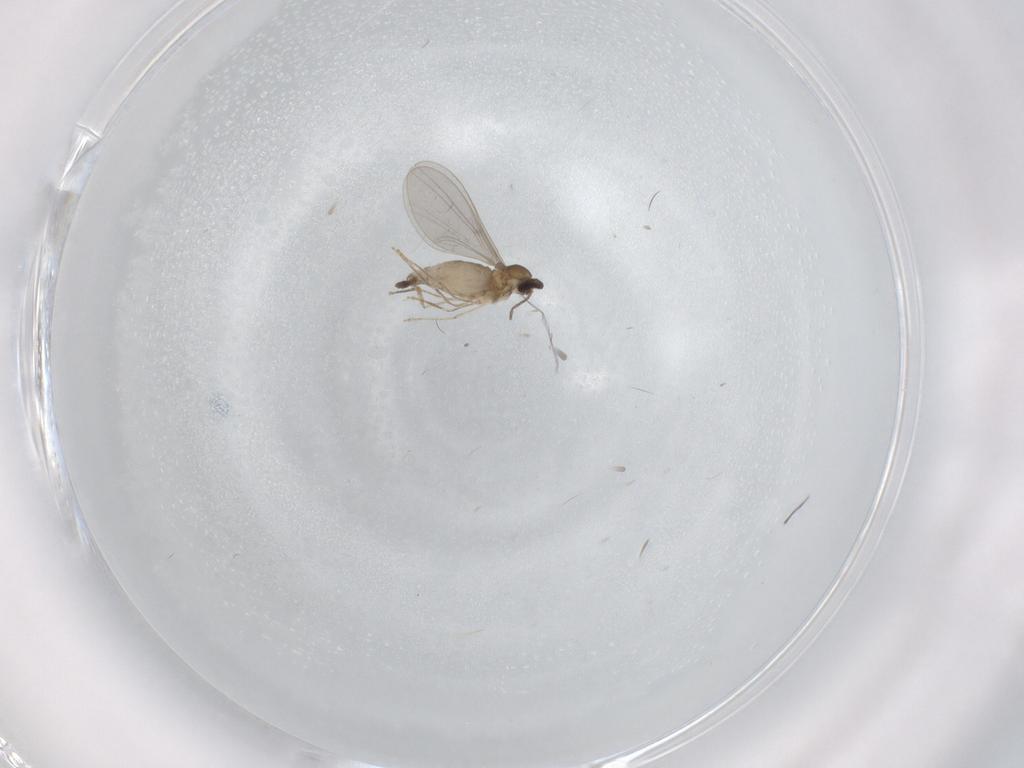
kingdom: Animalia
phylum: Arthropoda
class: Insecta
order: Diptera
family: Cecidomyiidae
